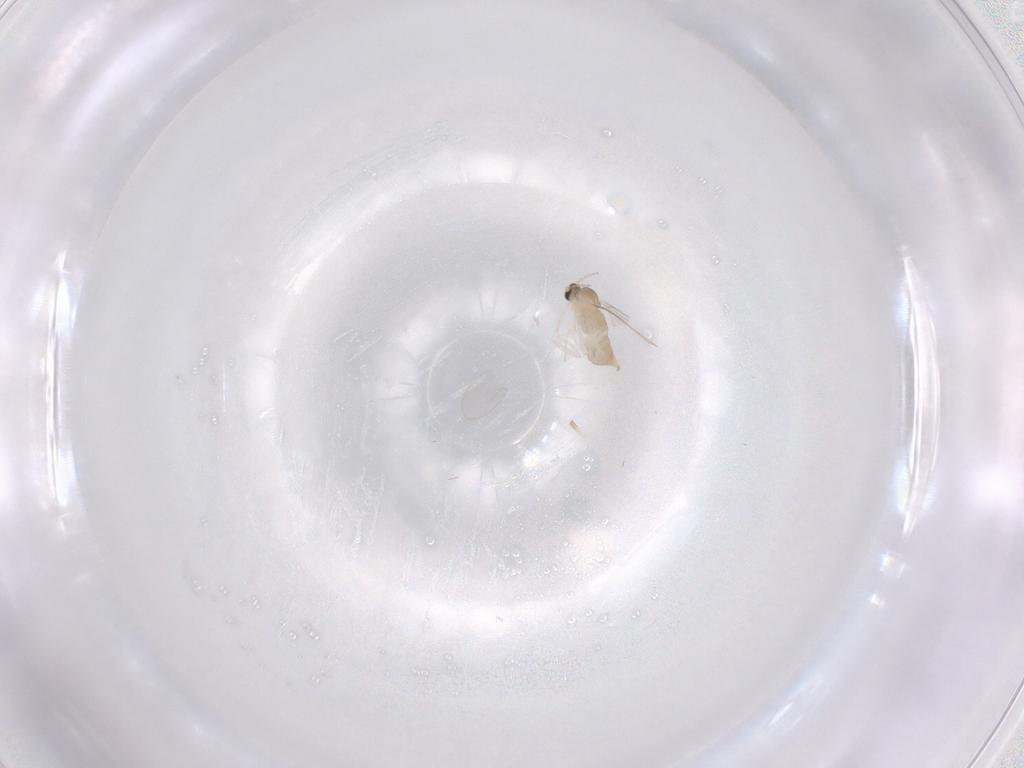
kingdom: Animalia
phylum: Arthropoda
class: Insecta
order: Diptera
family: Cecidomyiidae
